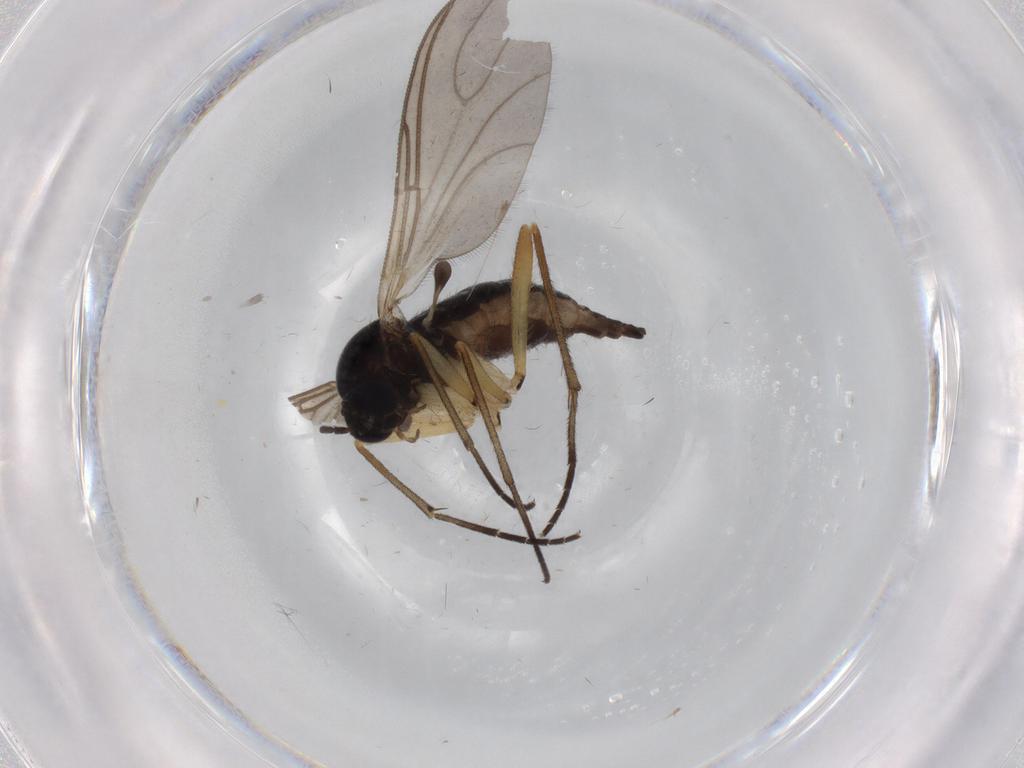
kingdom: Animalia
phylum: Arthropoda
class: Insecta
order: Diptera
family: Sciaridae
